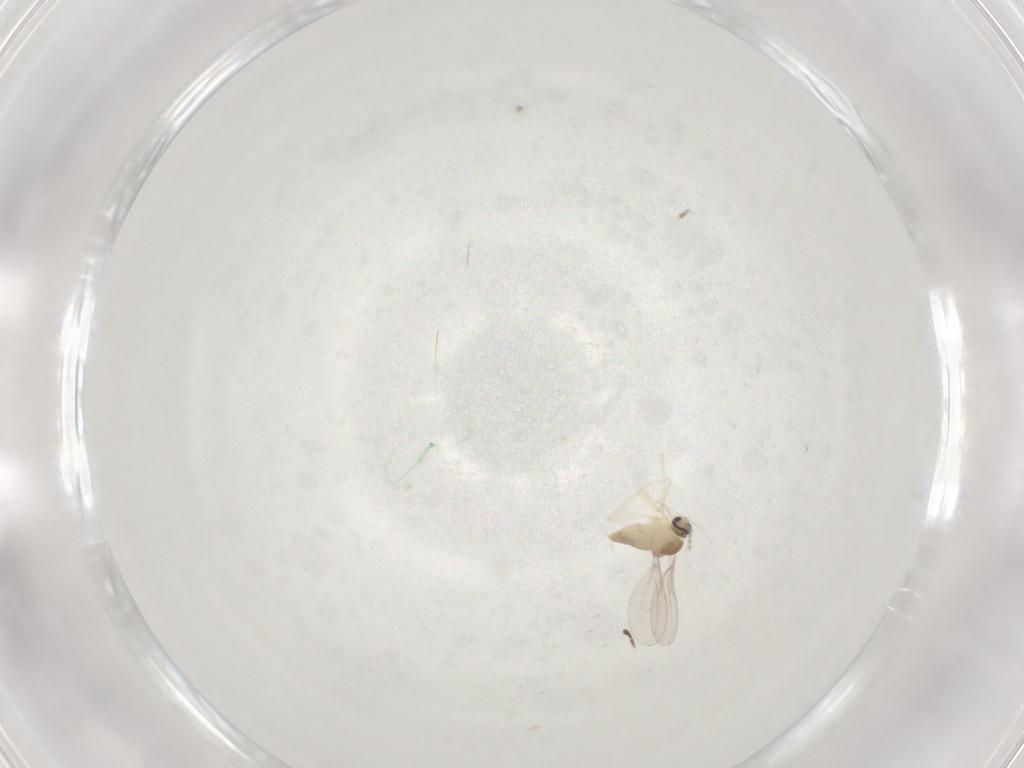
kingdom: Animalia
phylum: Arthropoda
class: Insecta
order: Diptera
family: Cecidomyiidae
